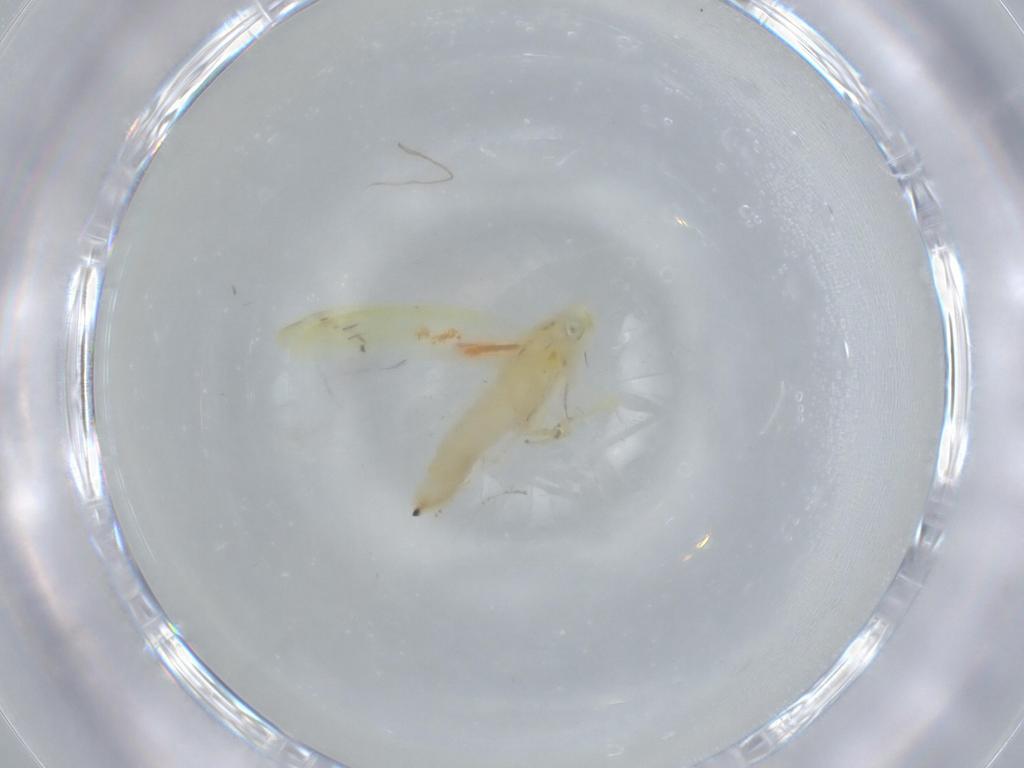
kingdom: Animalia
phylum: Arthropoda
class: Insecta
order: Hemiptera
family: Cicadellidae
